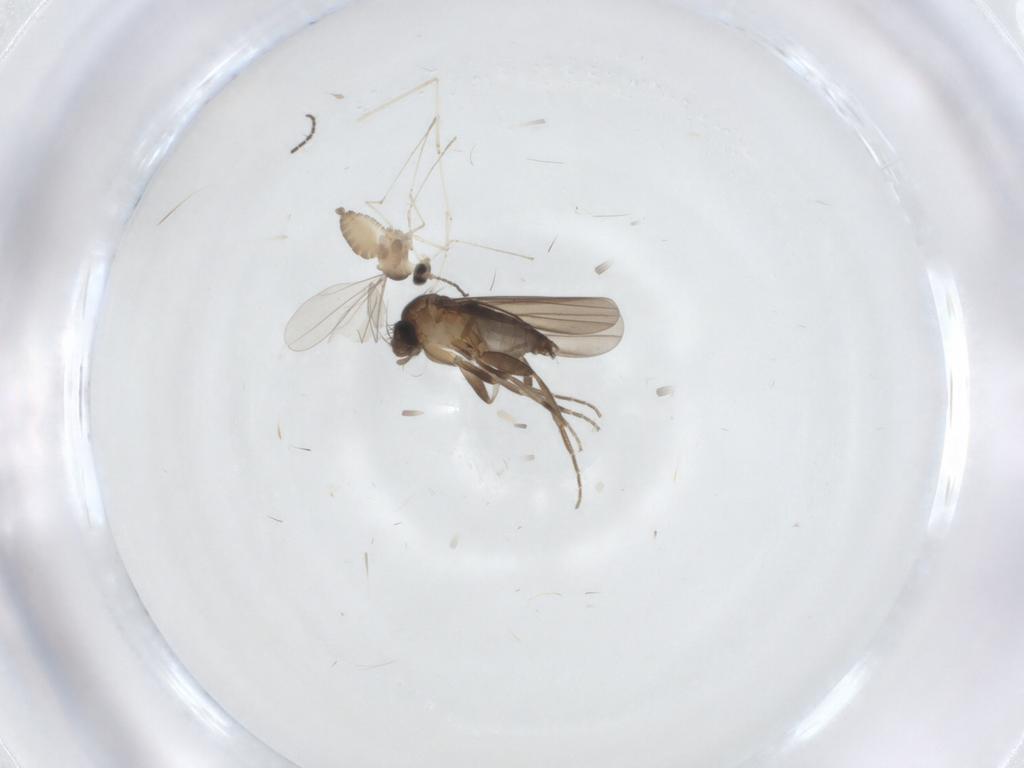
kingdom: Animalia
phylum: Arthropoda
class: Insecta
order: Diptera
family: Sciaridae
